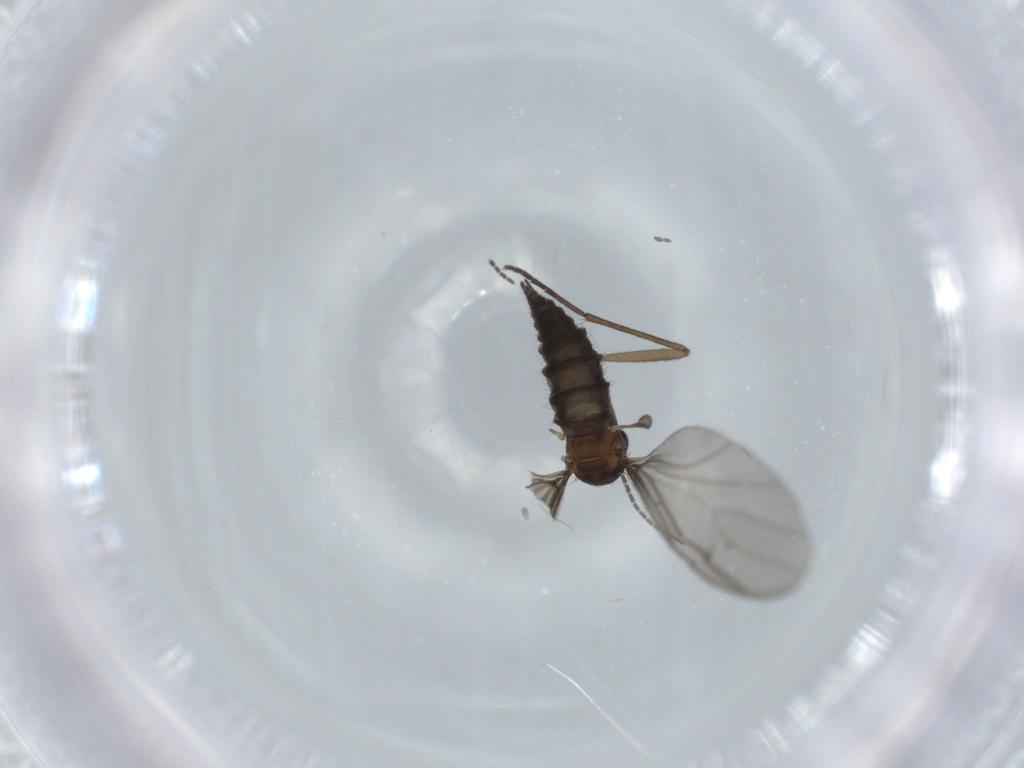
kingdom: Animalia
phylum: Arthropoda
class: Insecta
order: Diptera
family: Sciaridae
